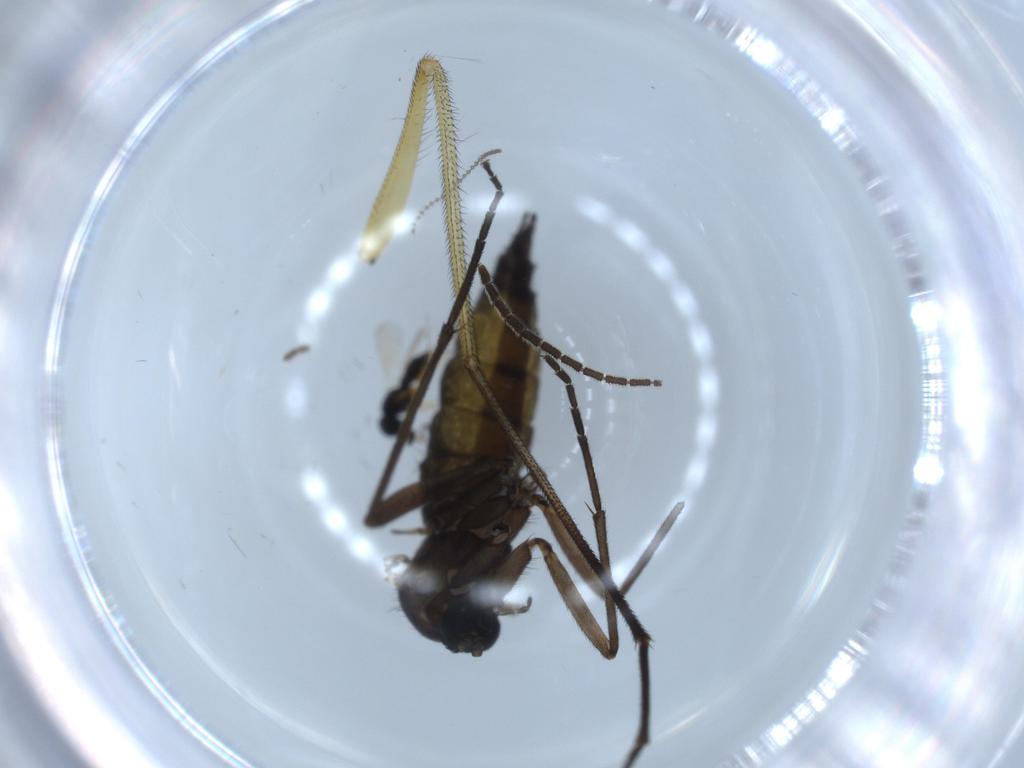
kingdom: Animalia
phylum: Arthropoda
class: Insecta
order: Diptera
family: Sciaridae
